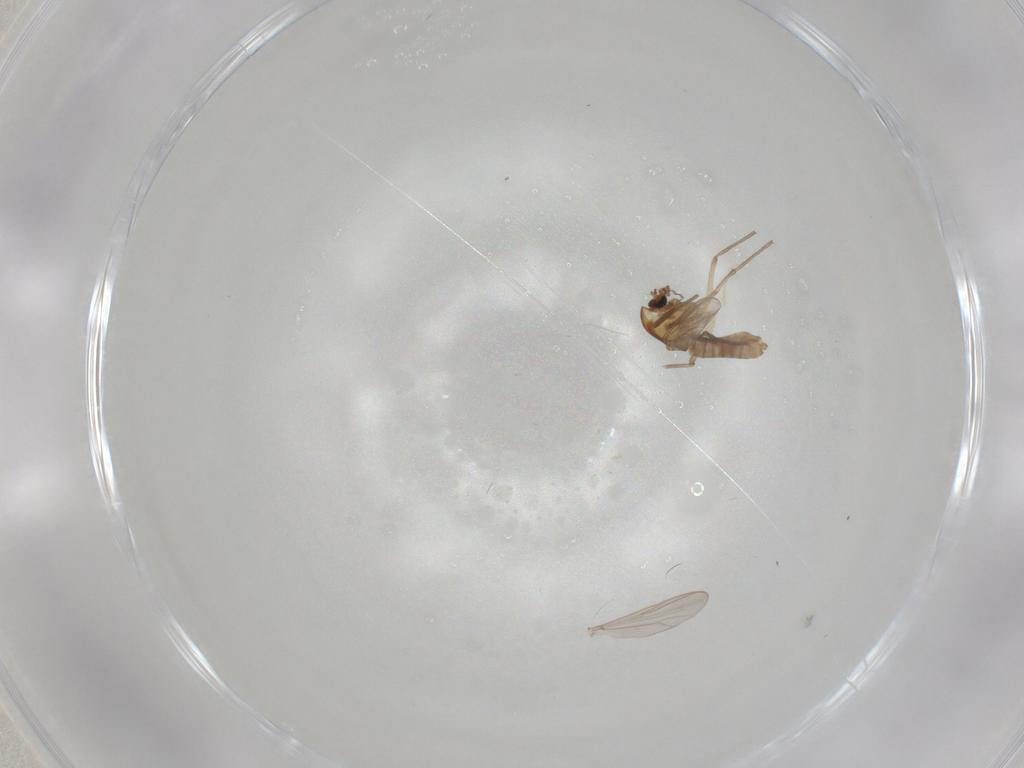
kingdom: Animalia
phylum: Arthropoda
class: Insecta
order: Diptera
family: Chironomidae
